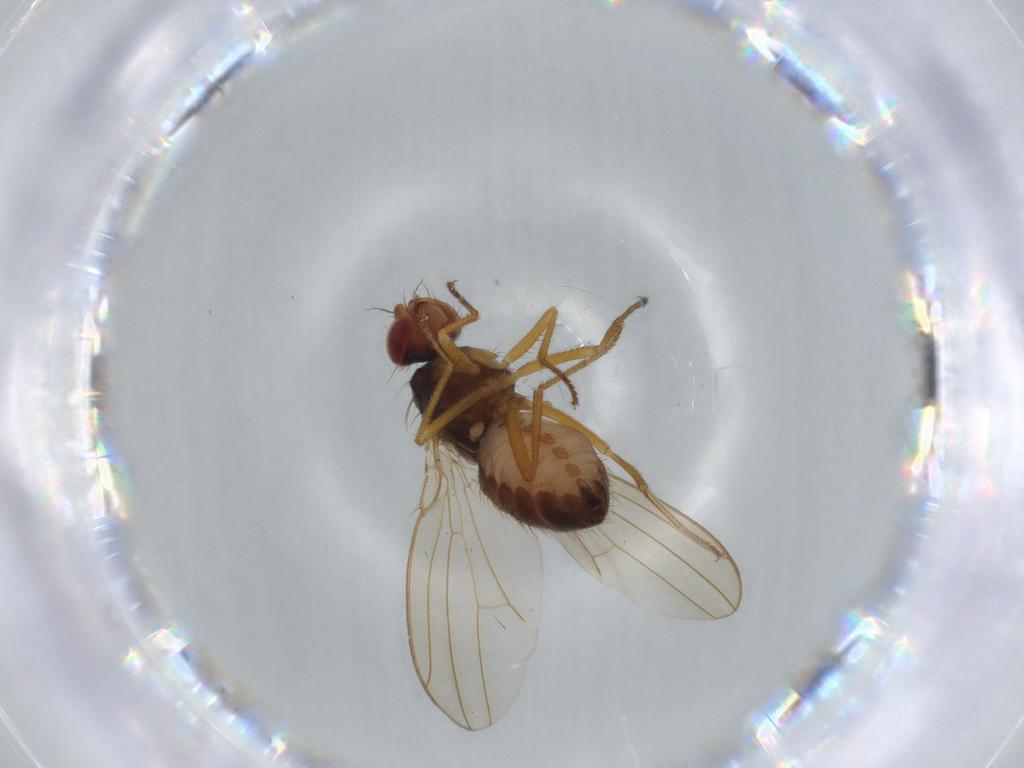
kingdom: Animalia
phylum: Arthropoda
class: Insecta
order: Diptera
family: Drosophilidae
